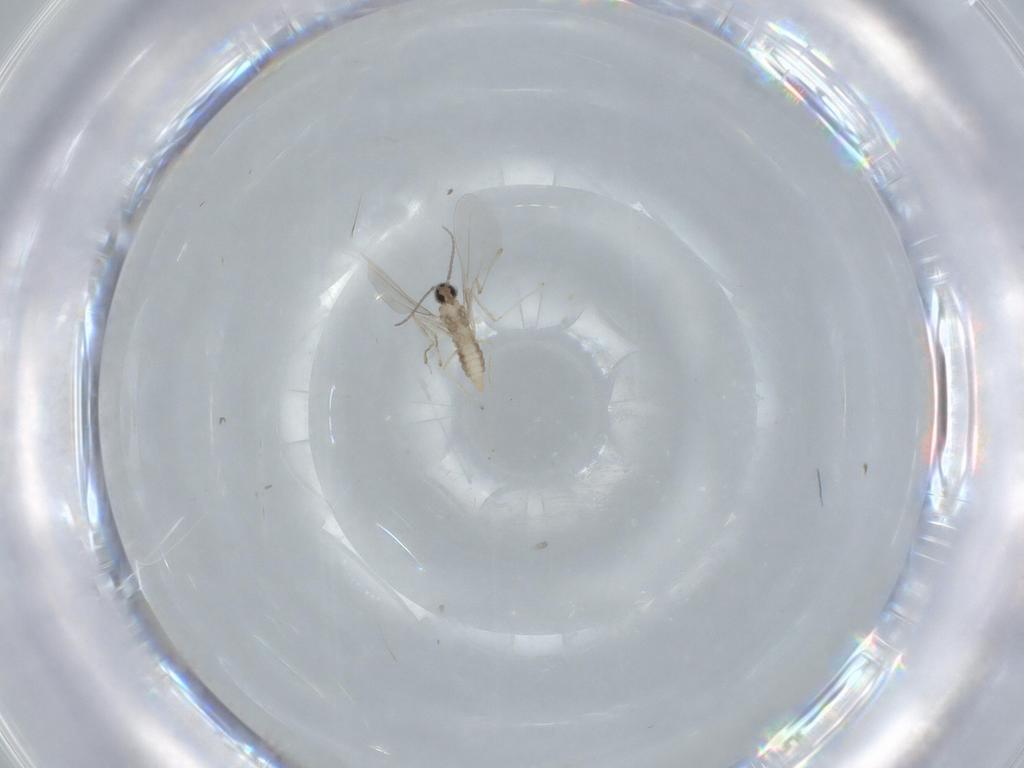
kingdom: Animalia
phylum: Arthropoda
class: Insecta
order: Diptera
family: Cecidomyiidae
